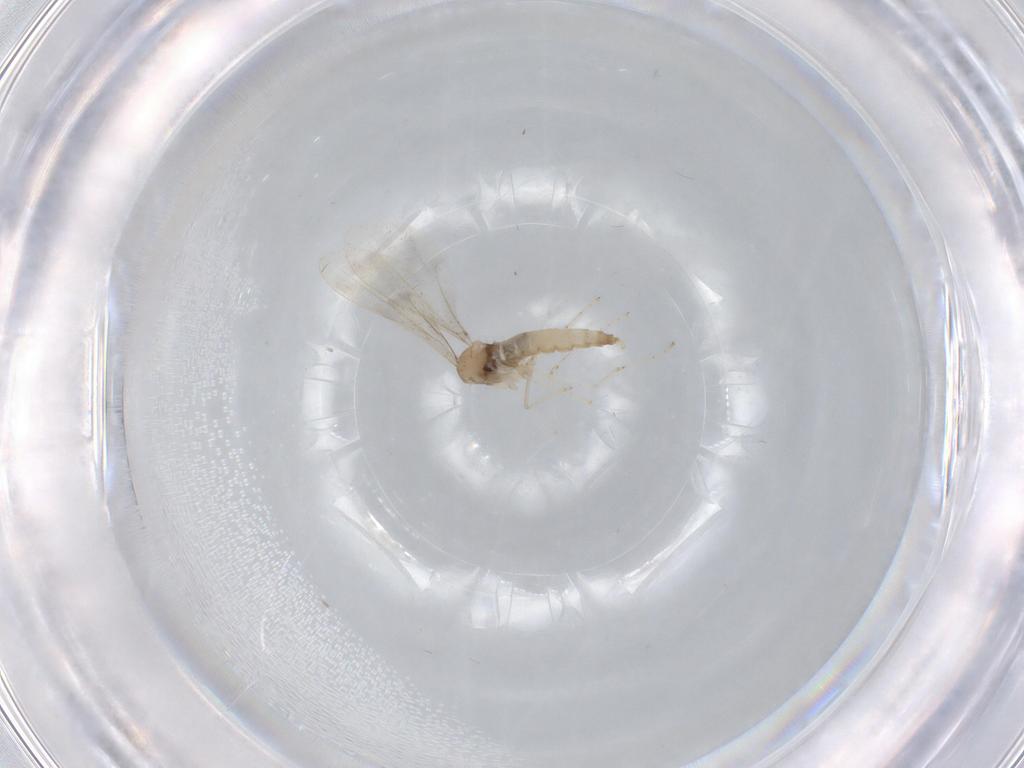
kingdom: Animalia
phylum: Arthropoda
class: Insecta
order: Diptera
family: Cecidomyiidae
